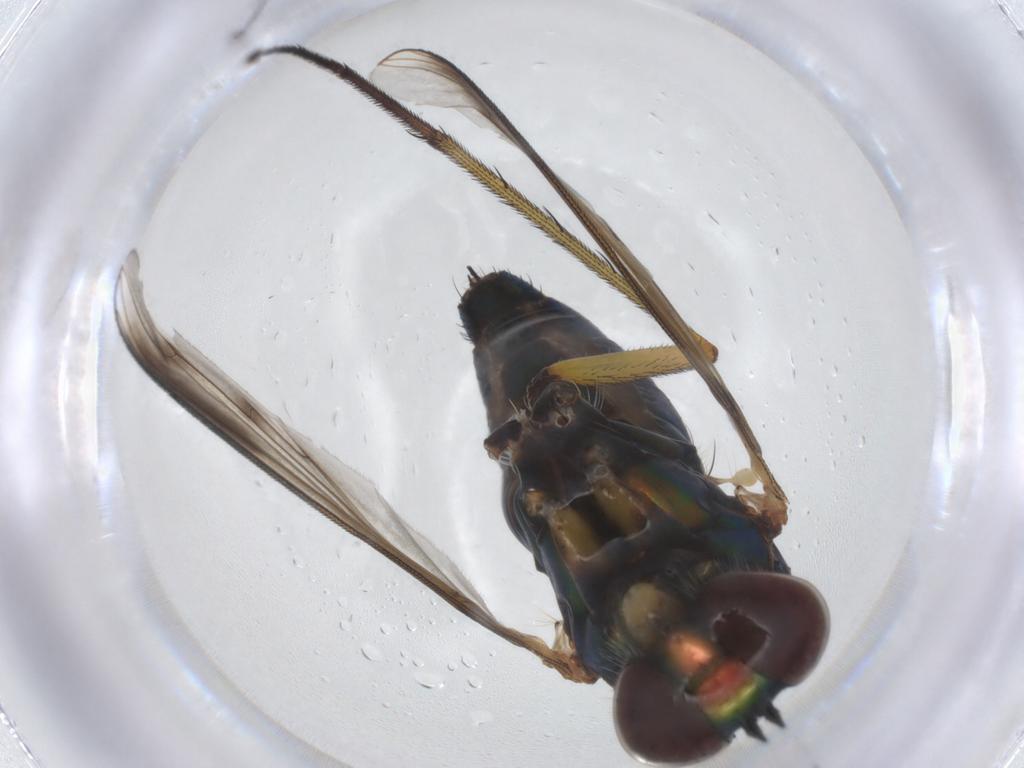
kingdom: Animalia
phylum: Arthropoda
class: Insecta
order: Diptera
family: Dolichopodidae
